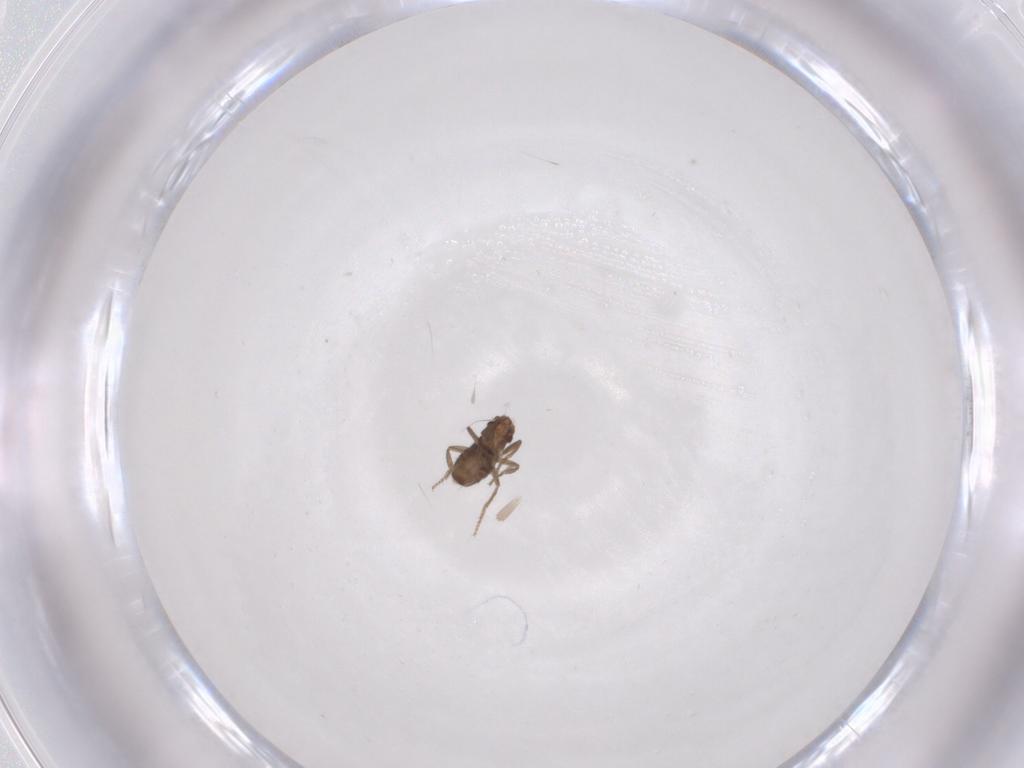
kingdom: Animalia
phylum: Arthropoda
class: Insecta
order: Diptera
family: Phoridae
